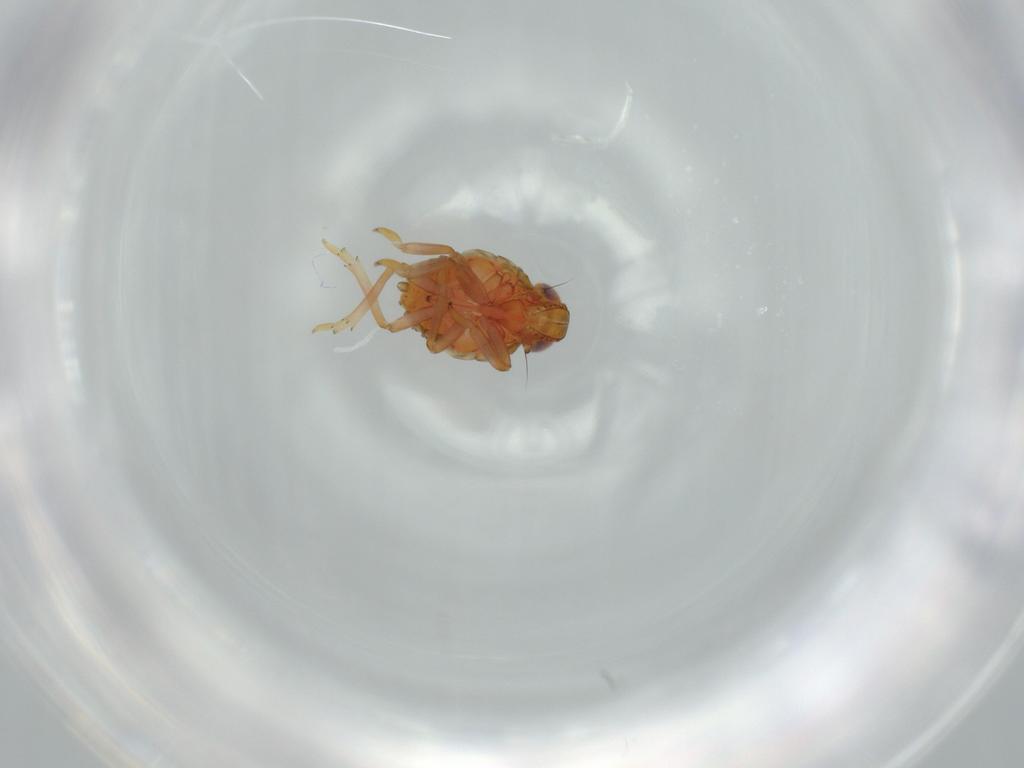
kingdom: Animalia
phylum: Arthropoda
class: Insecta
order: Hemiptera
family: Issidae
